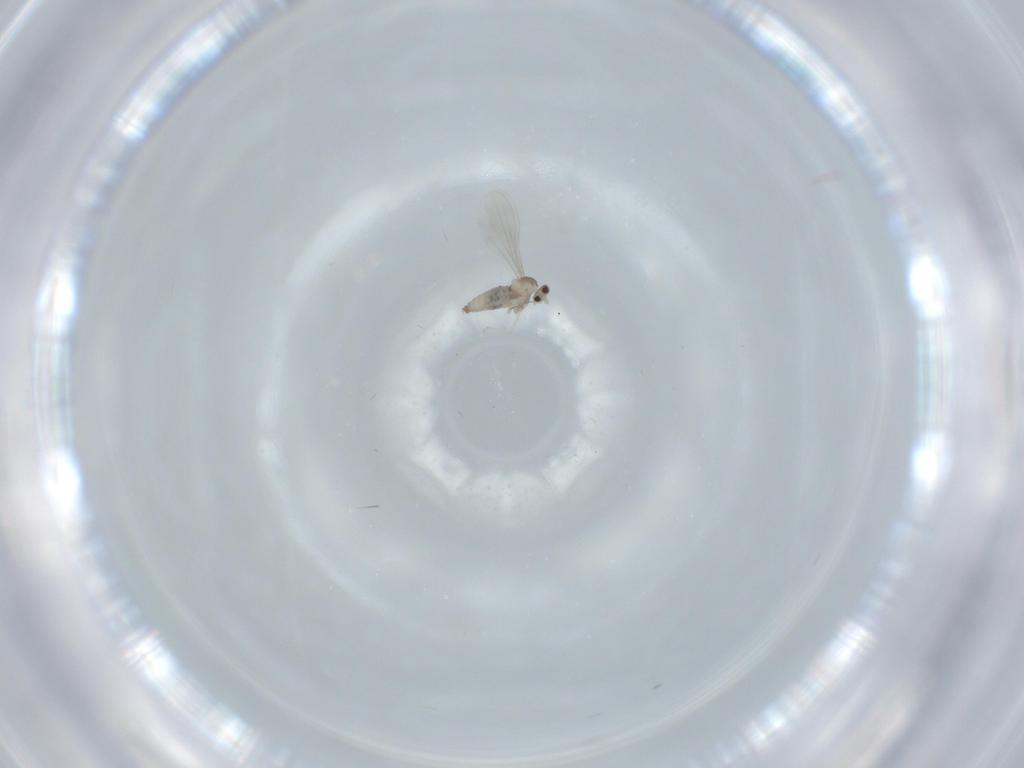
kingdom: Animalia
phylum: Arthropoda
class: Insecta
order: Diptera
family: Cecidomyiidae
